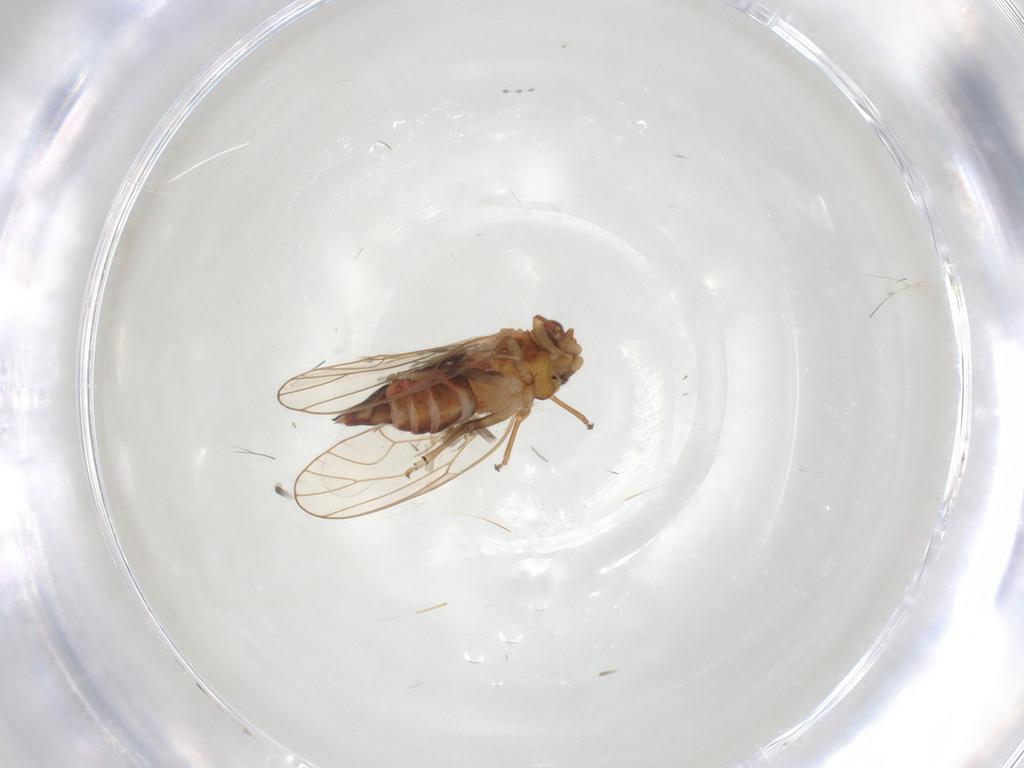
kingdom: Animalia
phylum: Arthropoda
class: Insecta
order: Hemiptera
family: Psyllidae
